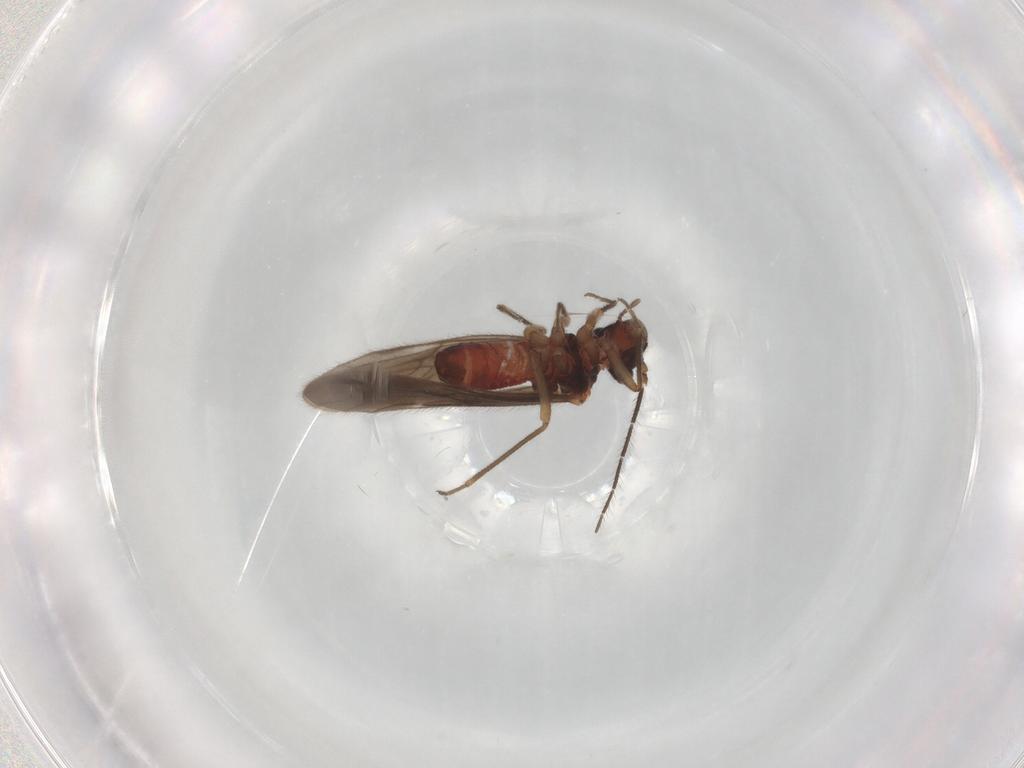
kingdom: Animalia
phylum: Arthropoda
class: Insecta
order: Psocodea
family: Trichopsocidae
